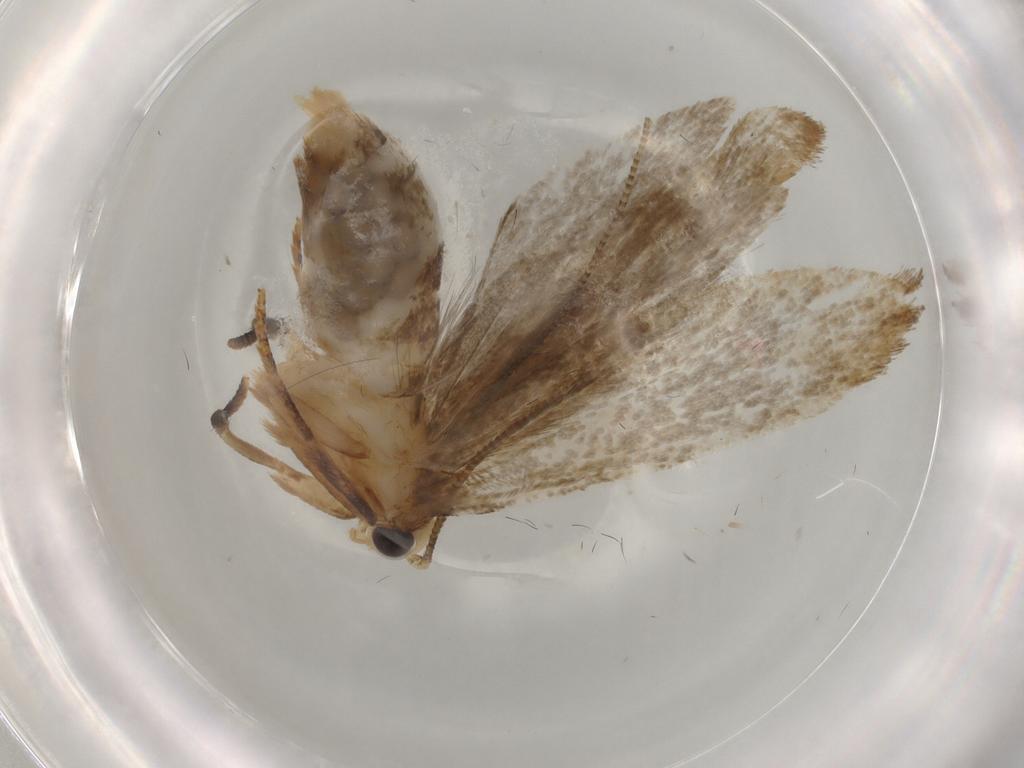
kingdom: Animalia
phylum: Arthropoda
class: Insecta
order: Lepidoptera
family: Tineidae
